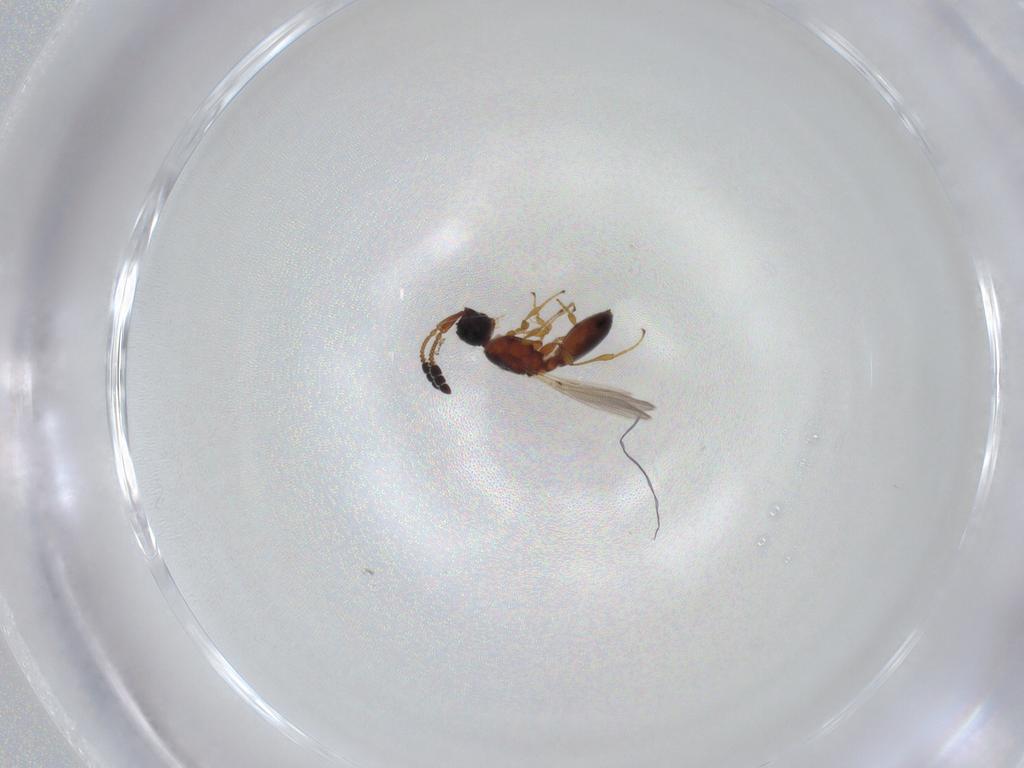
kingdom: Animalia
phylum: Arthropoda
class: Insecta
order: Hymenoptera
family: Diapriidae
